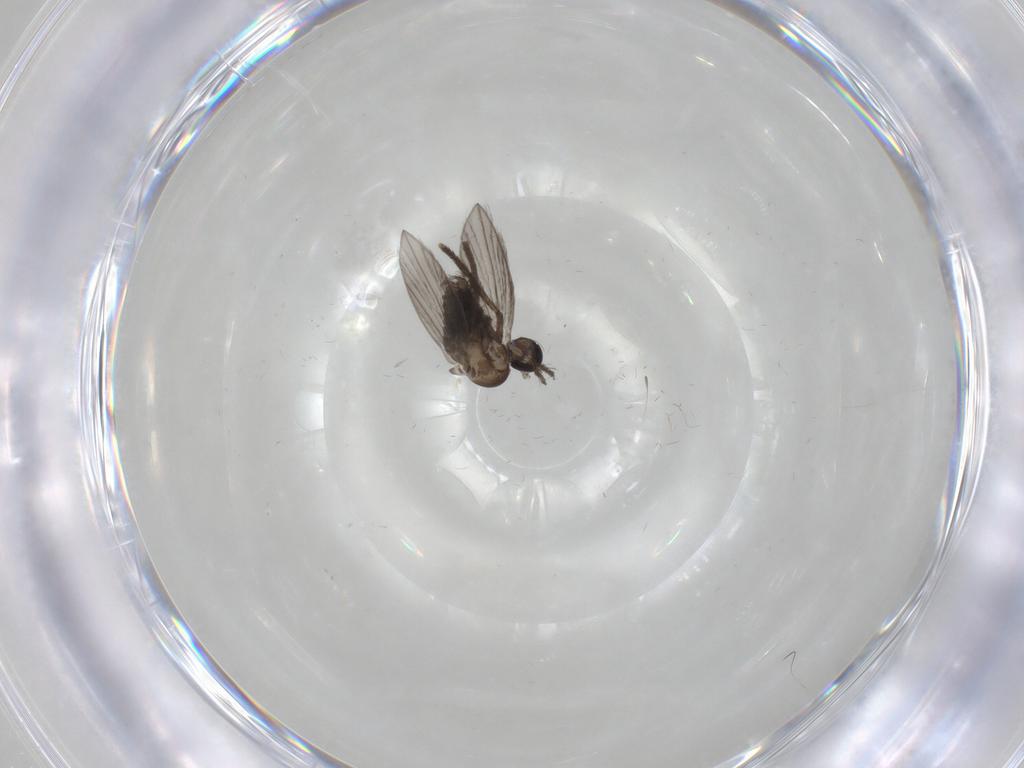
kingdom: Animalia
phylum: Arthropoda
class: Insecta
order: Diptera
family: Psychodidae
